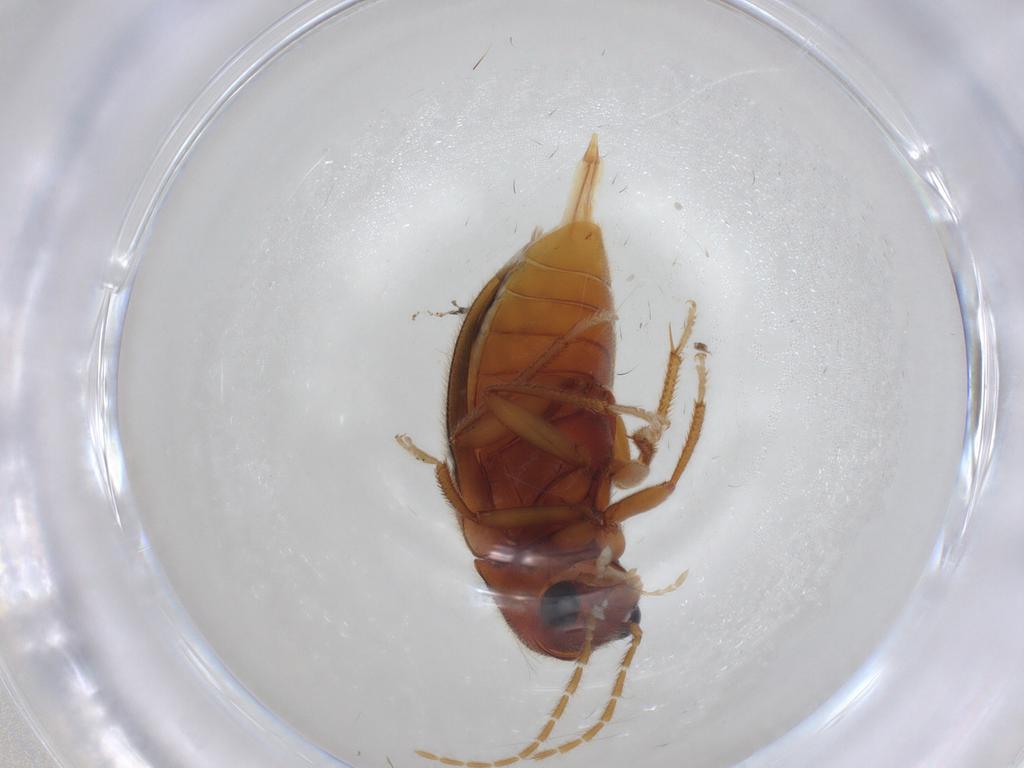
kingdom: Animalia
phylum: Arthropoda
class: Insecta
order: Coleoptera
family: Ptilodactylidae
